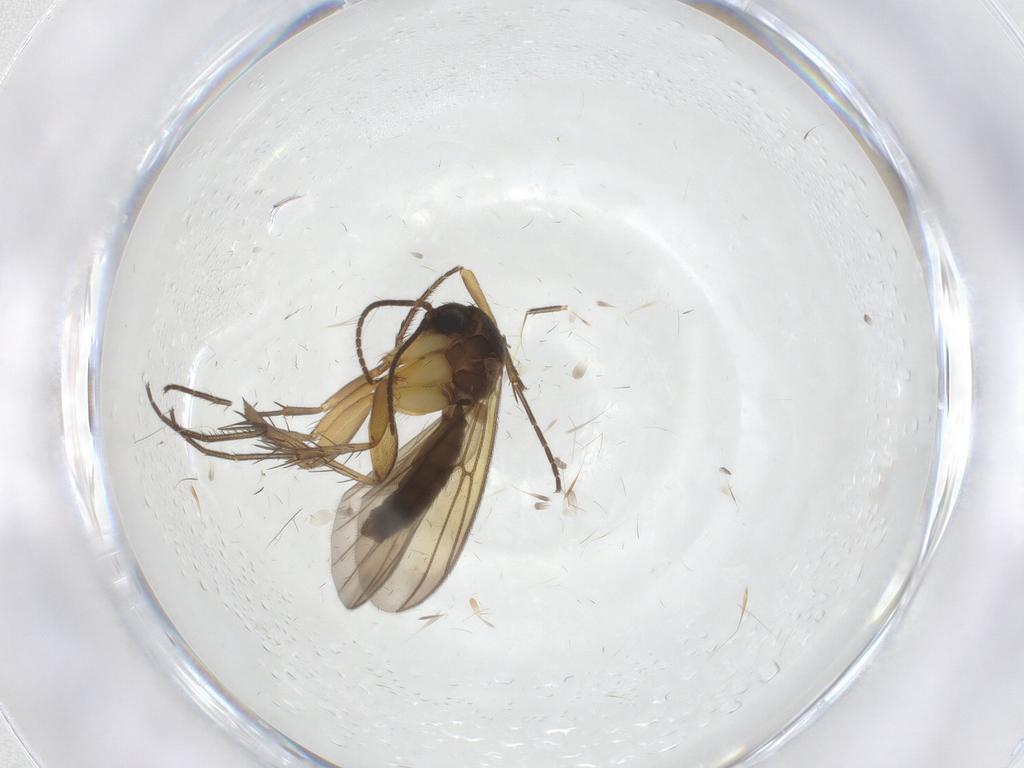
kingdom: Animalia
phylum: Arthropoda
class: Insecta
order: Diptera
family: Mycetophilidae
